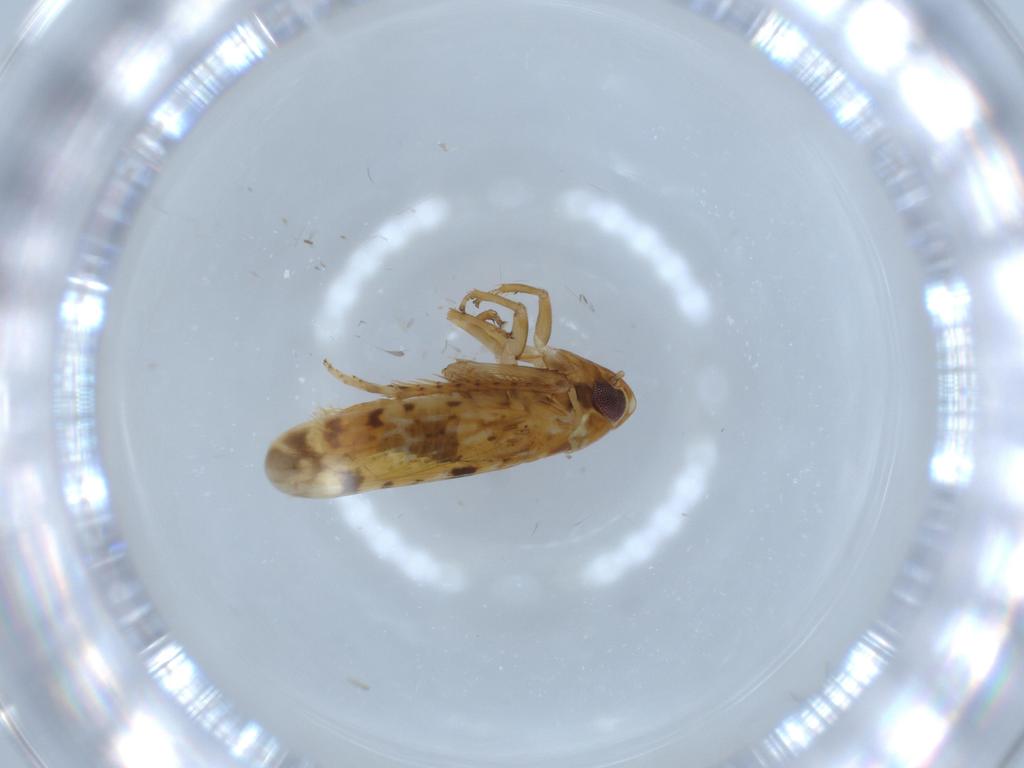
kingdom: Animalia
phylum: Arthropoda
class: Insecta
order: Hemiptera
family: Cicadellidae
